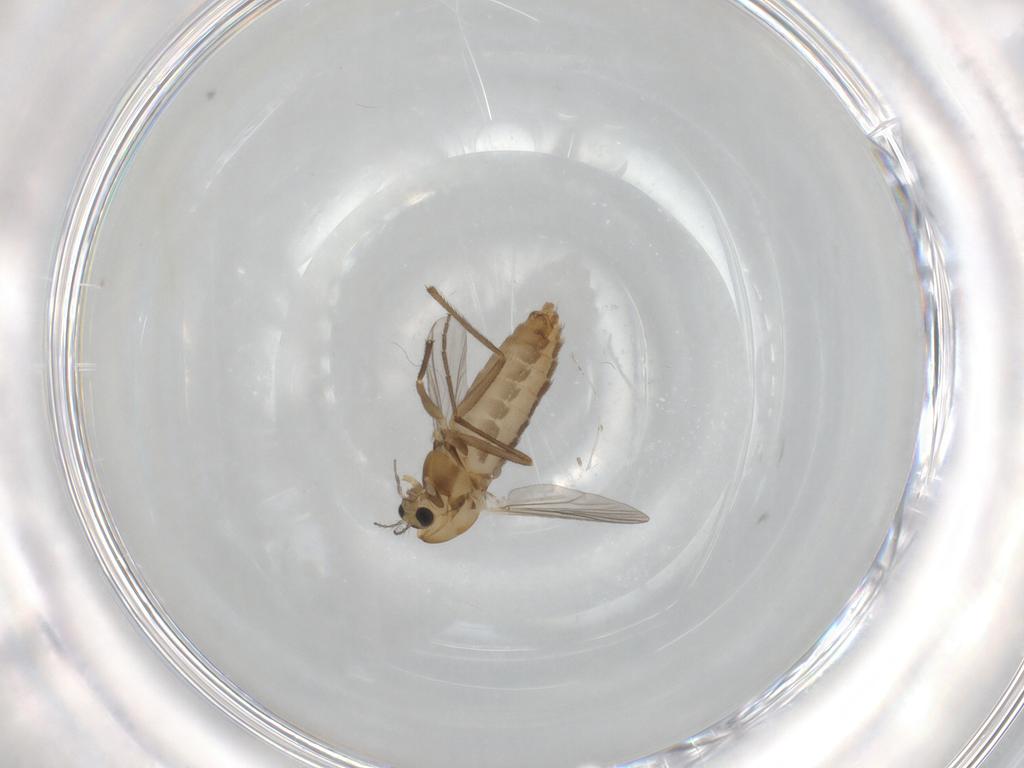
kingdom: Animalia
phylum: Arthropoda
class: Insecta
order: Diptera
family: Chironomidae
